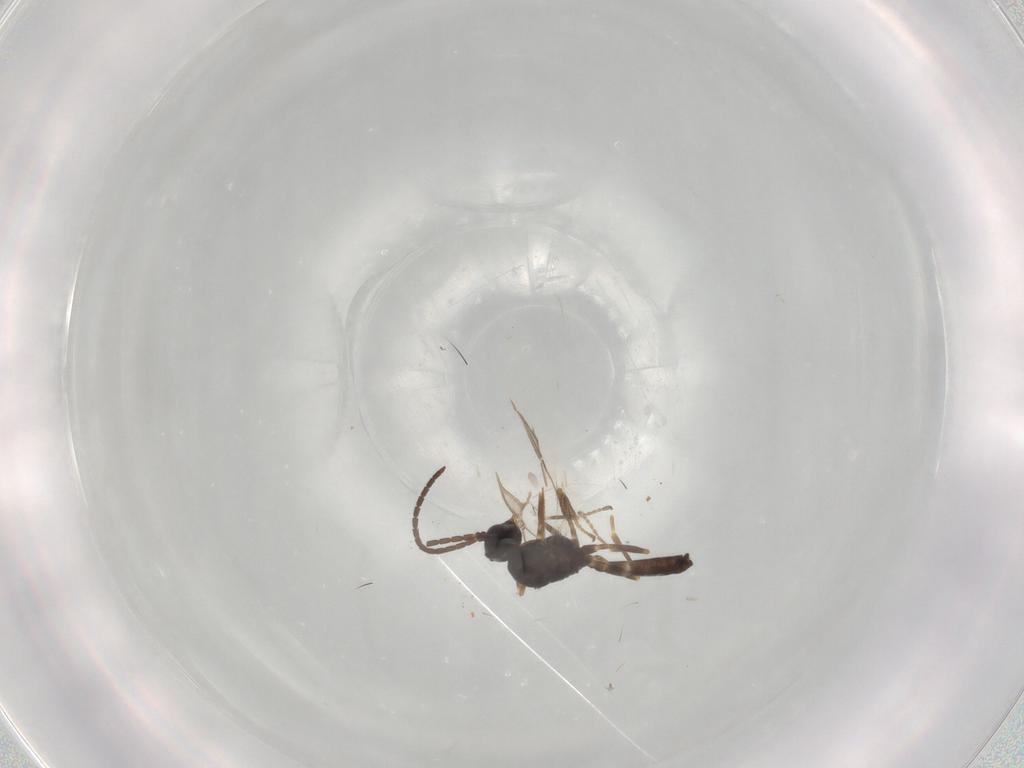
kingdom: Animalia
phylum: Arthropoda
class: Insecta
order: Hymenoptera
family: Braconidae
